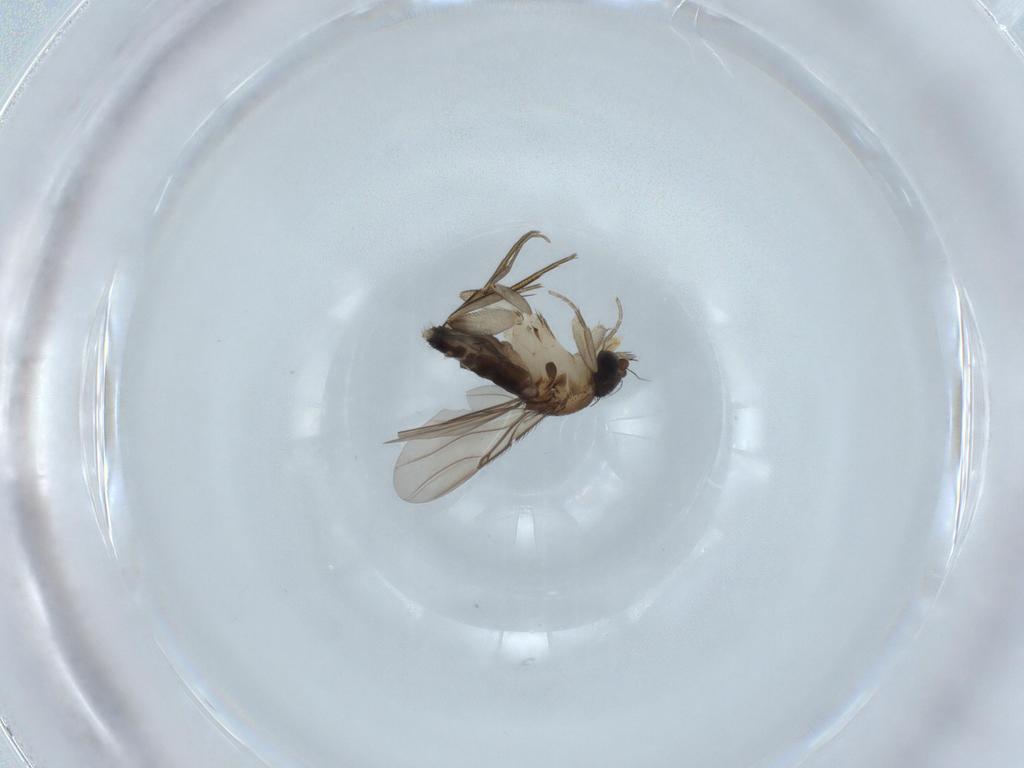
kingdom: Animalia
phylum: Arthropoda
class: Insecta
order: Diptera
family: Phoridae
